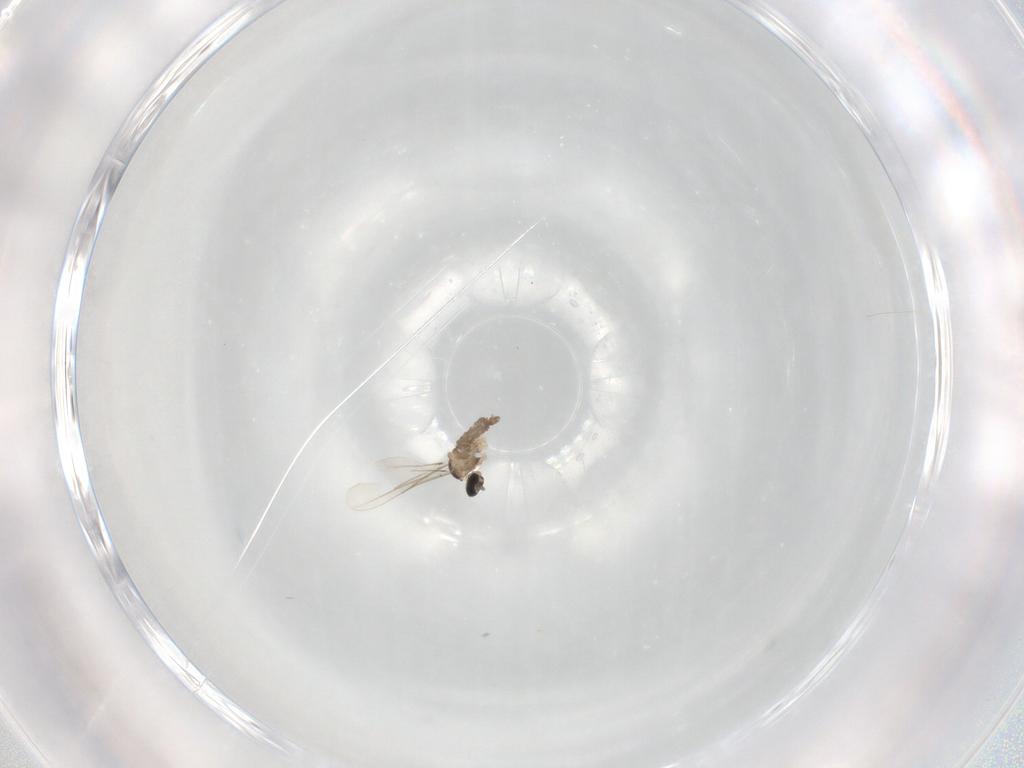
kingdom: Animalia
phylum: Arthropoda
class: Insecta
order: Diptera
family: Cecidomyiidae
